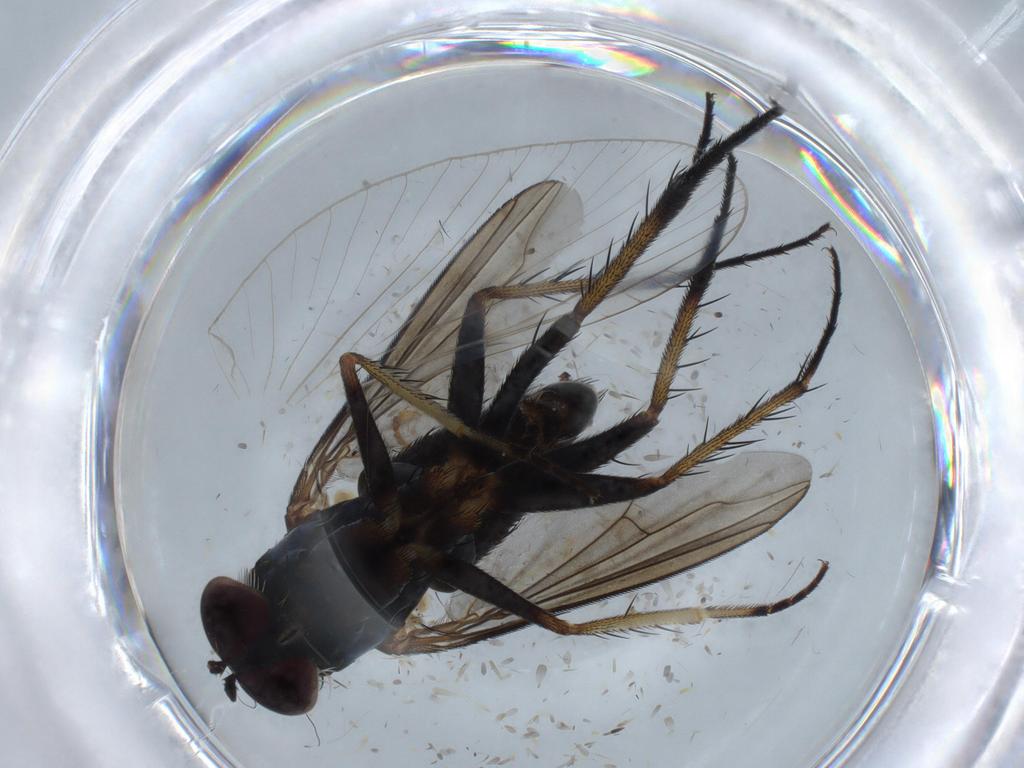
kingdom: Animalia
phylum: Arthropoda
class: Insecta
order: Diptera
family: Dolichopodidae
